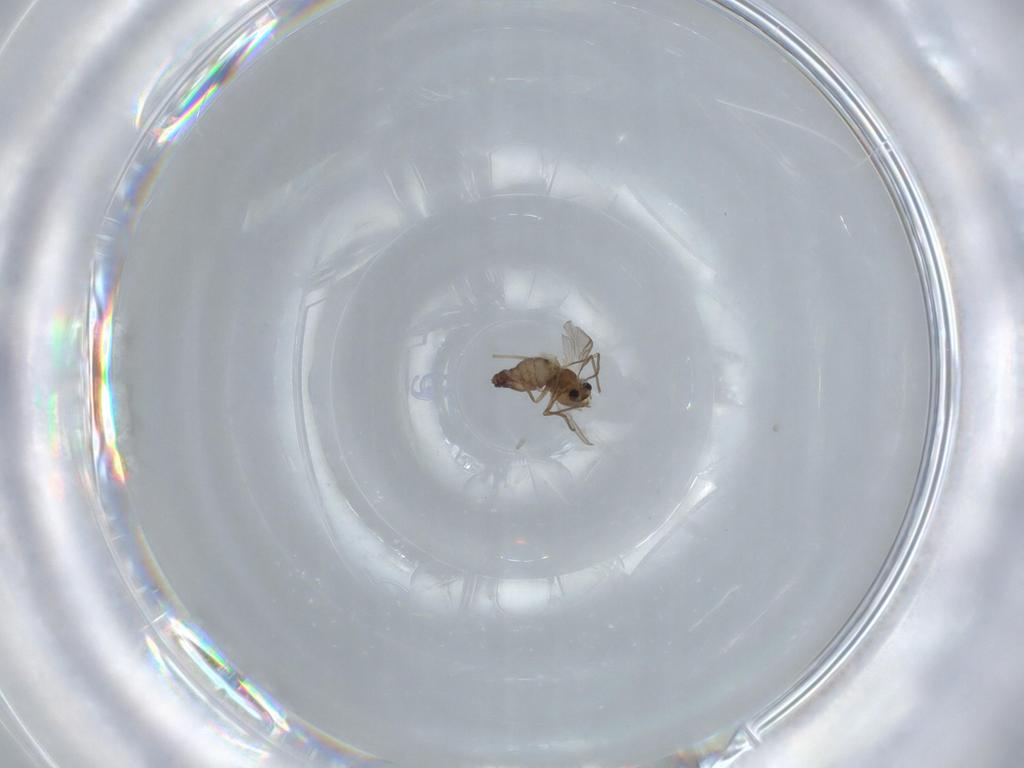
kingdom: Animalia
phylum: Arthropoda
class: Insecta
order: Diptera
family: Chironomidae
